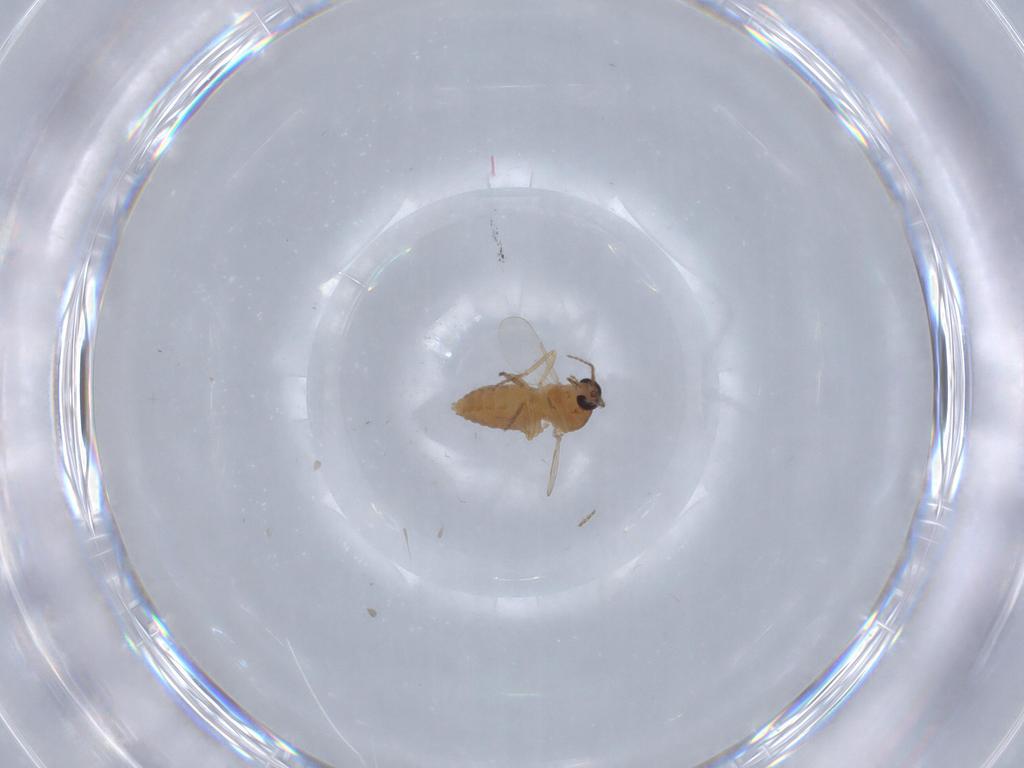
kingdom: Animalia
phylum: Arthropoda
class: Insecta
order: Diptera
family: Ceratopogonidae
